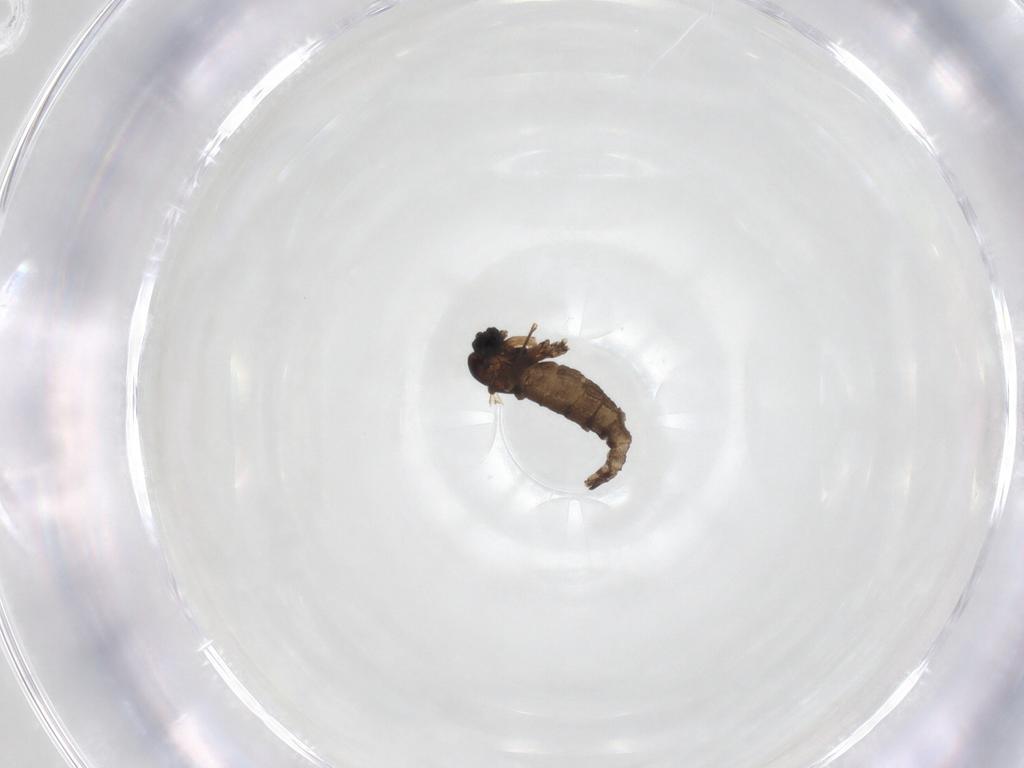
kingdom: Animalia
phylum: Arthropoda
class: Insecta
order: Diptera
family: Sciaridae
